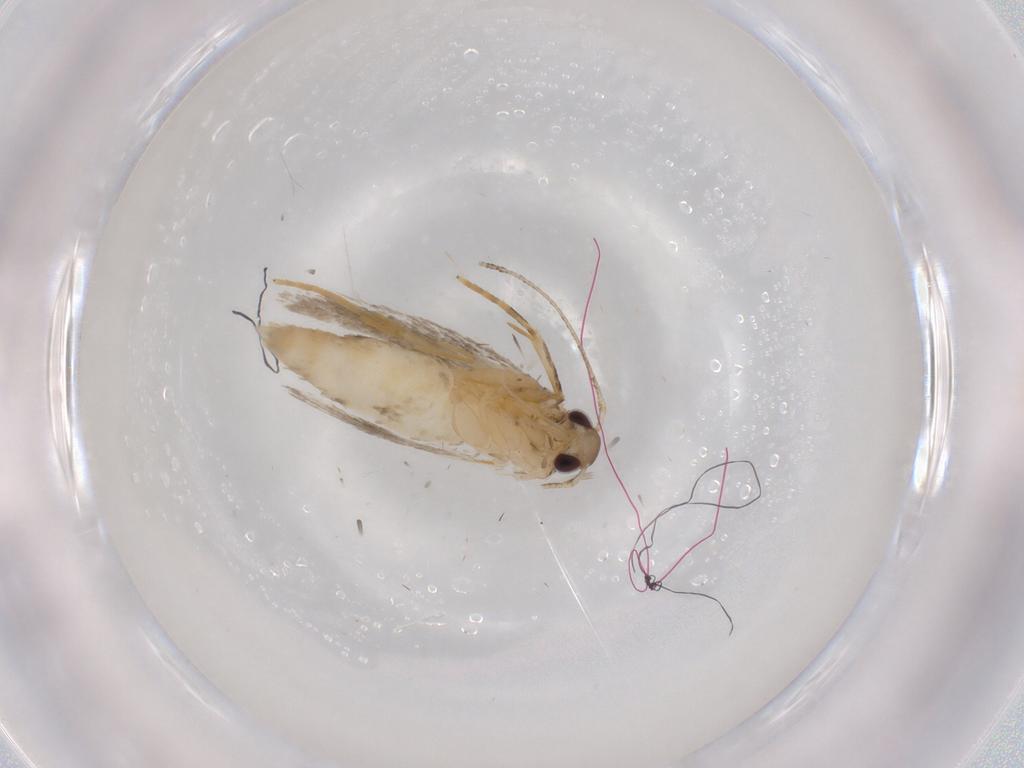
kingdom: Animalia
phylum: Arthropoda
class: Insecta
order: Lepidoptera
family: Autostichidae
